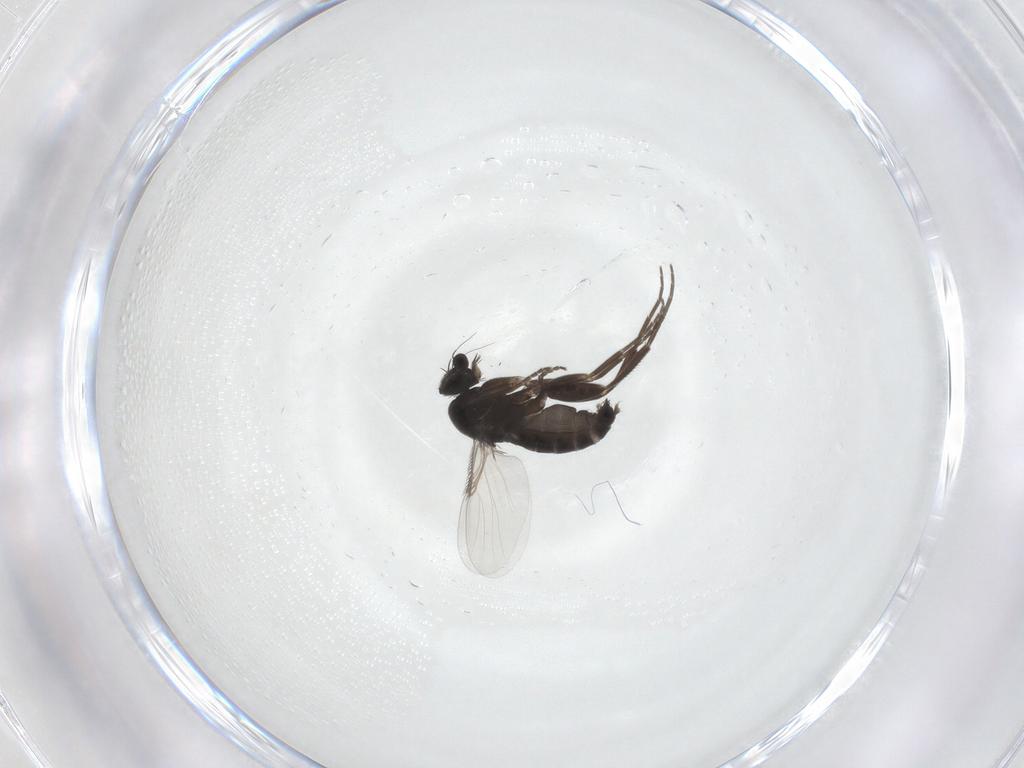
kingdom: Animalia
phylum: Arthropoda
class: Insecta
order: Diptera
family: Phoridae
